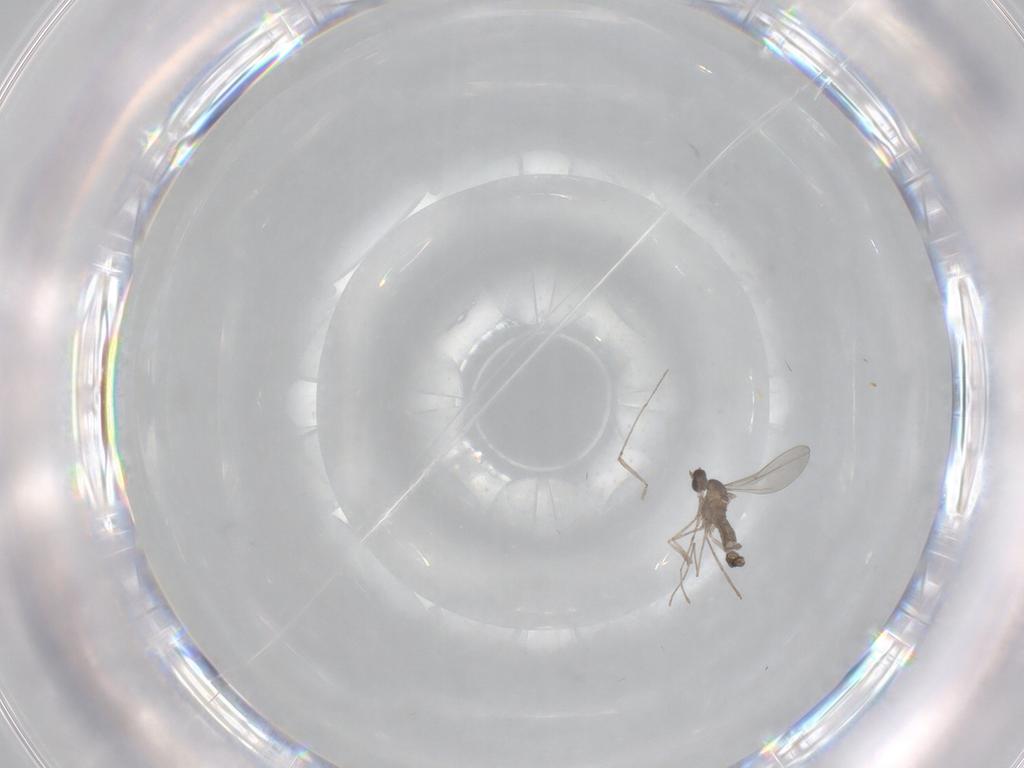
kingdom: Animalia
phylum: Arthropoda
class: Insecta
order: Diptera
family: Cecidomyiidae
